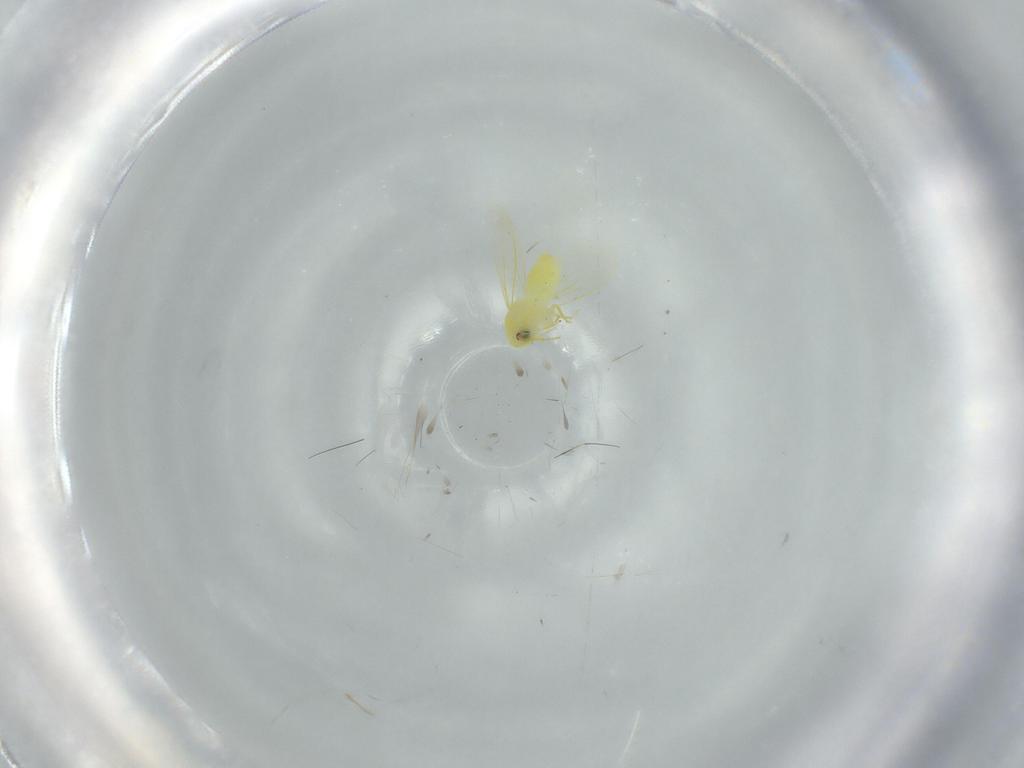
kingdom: Animalia
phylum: Arthropoda
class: Insecta
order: Hemiptera
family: Aleyrodidae
